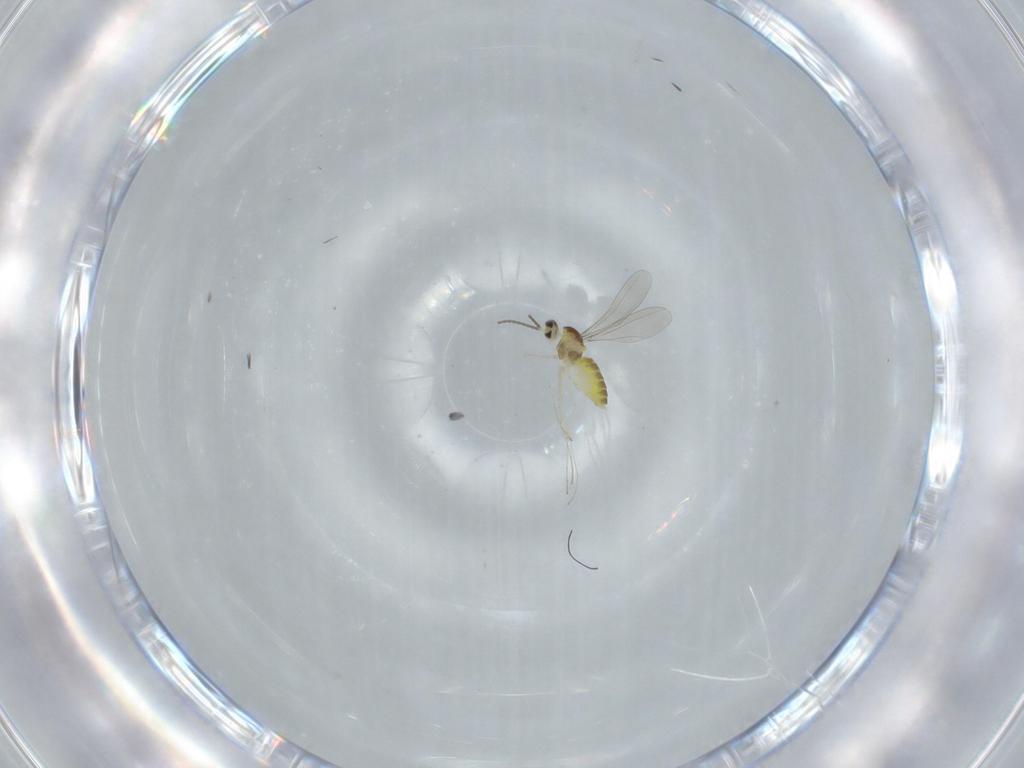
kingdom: Animalia
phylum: Arthropoda
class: Insecta
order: Diptera
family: Cecidomyiidae
